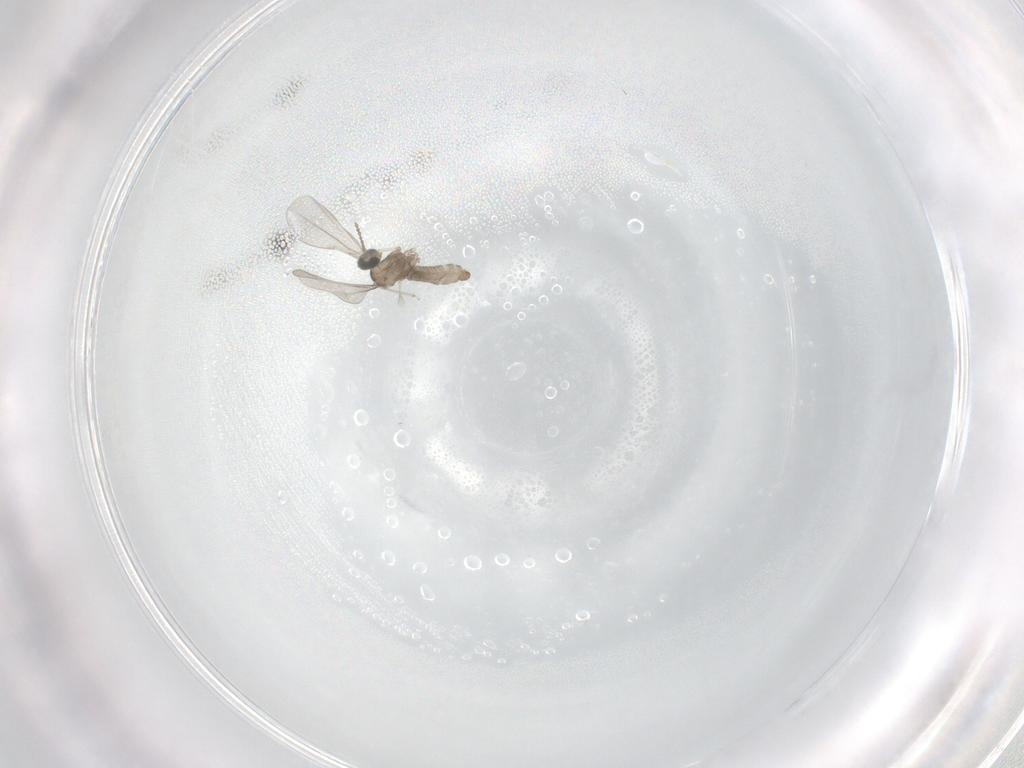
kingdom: Animalia
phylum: Arthropoda
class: Insecta
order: Diptera
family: Cecidomyiidae
